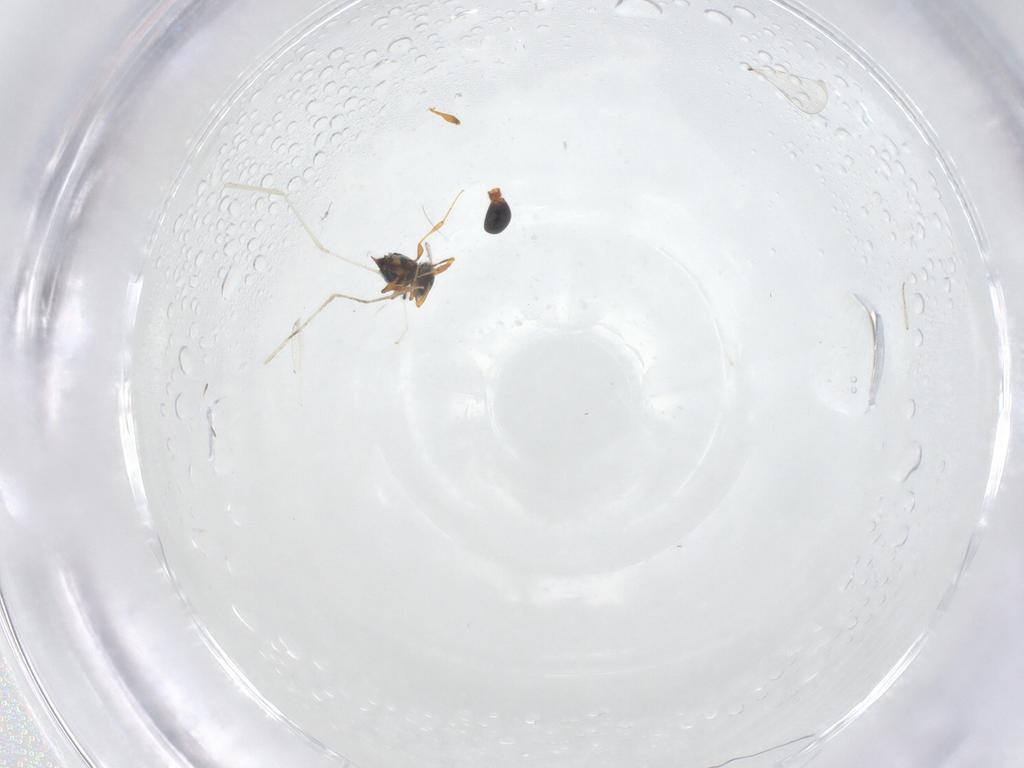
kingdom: Animalia
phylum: Arthropoda
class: Insecta
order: Hymenoptera
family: Platygastridae
